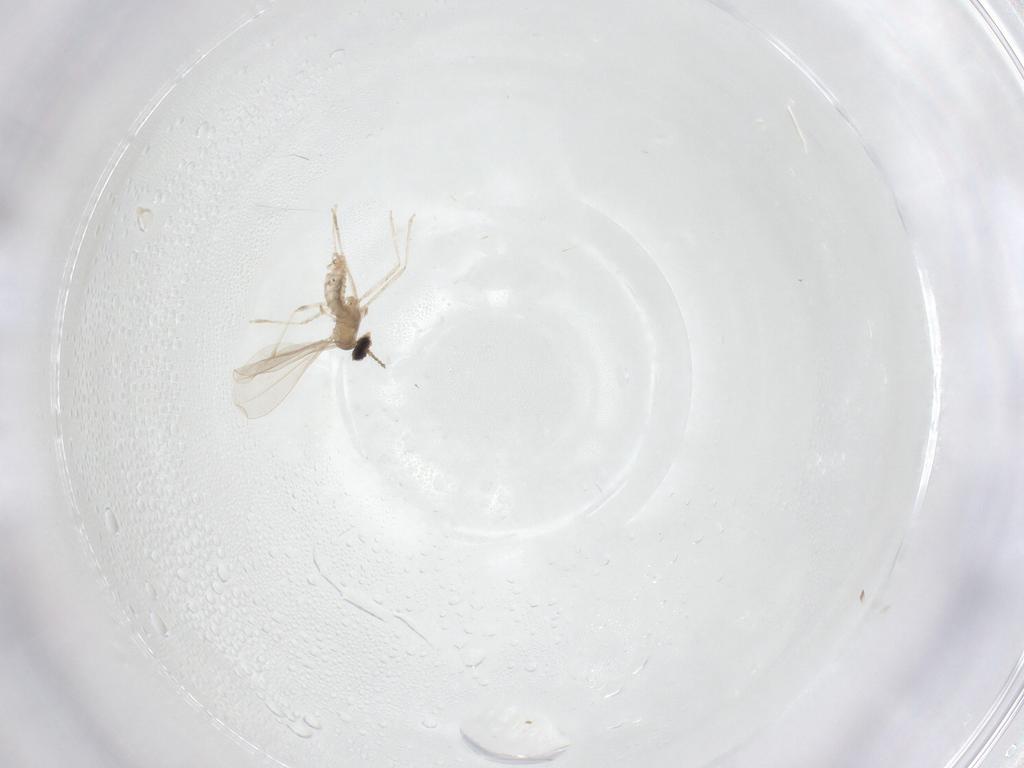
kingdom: Animalia
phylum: Arthropoda
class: Insecta
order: Diptera
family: Cecidomyiidae
